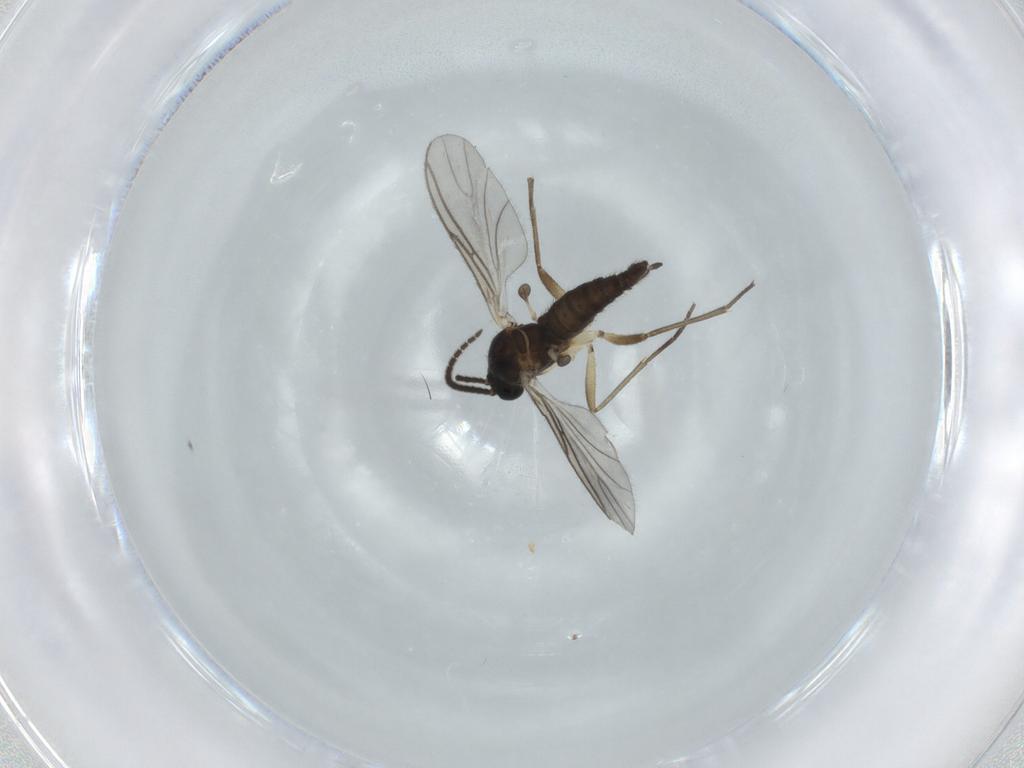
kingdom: Animalia
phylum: Arthropoda
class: Insecta
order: Diptera
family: Sciaridae
